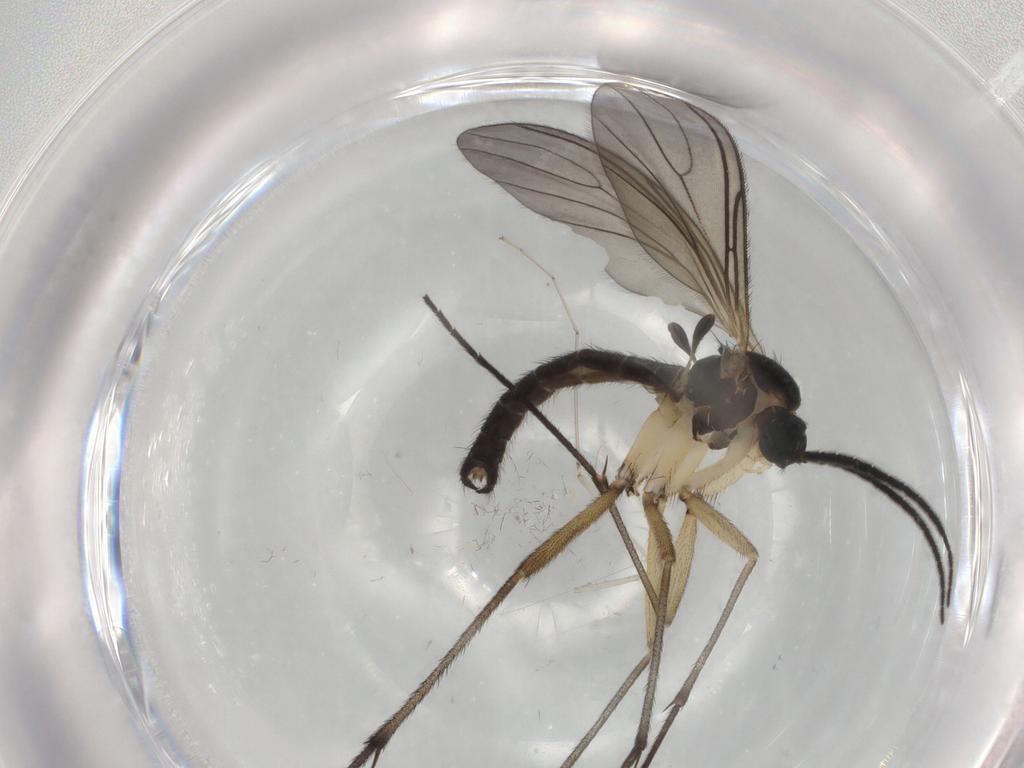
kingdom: Animalia
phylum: Arthropoda
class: Insecta
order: Diptera
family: Drosophilidae
